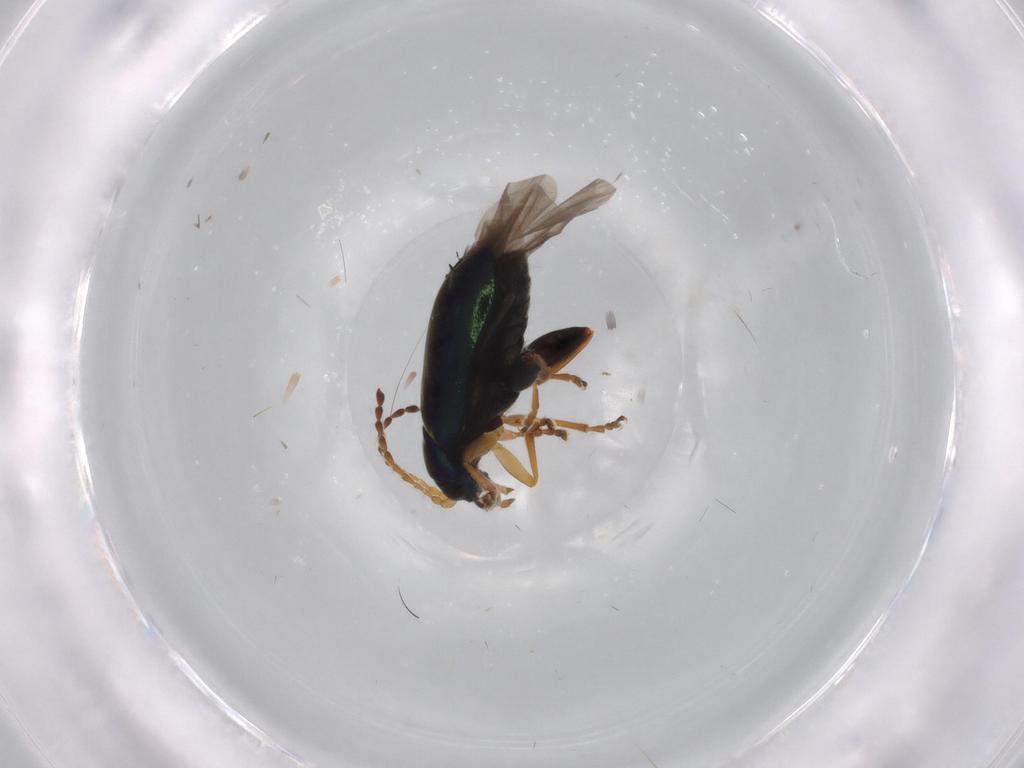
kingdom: Animalia
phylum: Arthropoda
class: Insecta
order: Coleoptera
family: Chrysomelidae
